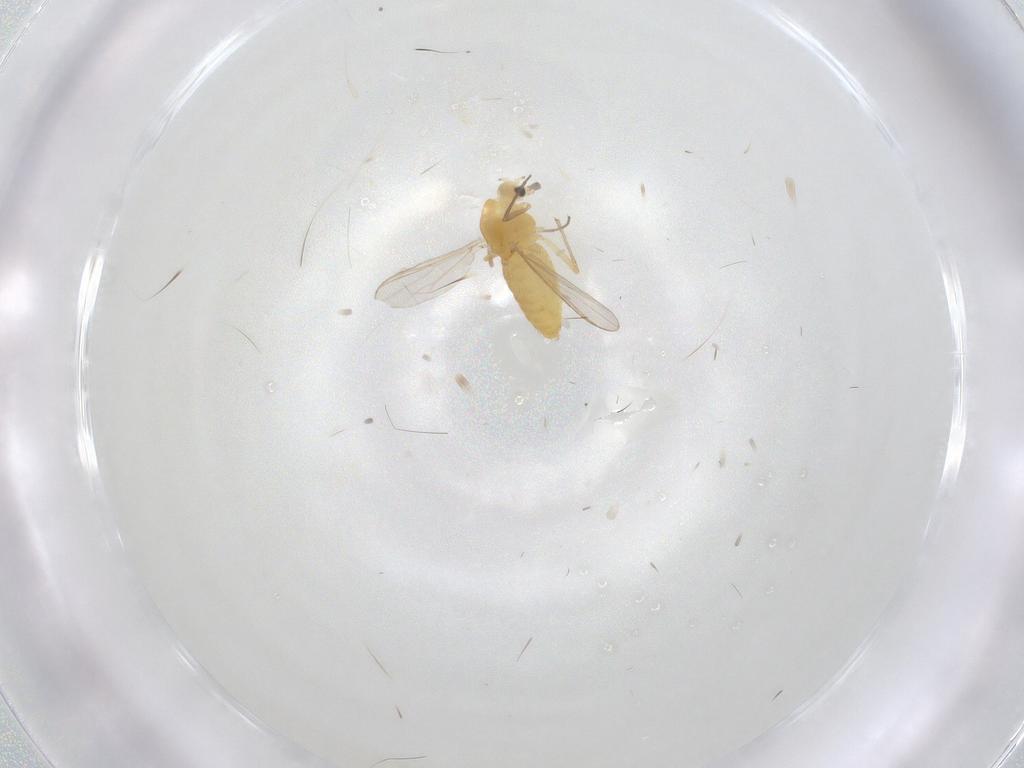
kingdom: Animalia
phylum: Arthropoda
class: Insecta
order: Diptera
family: Chironomidae
